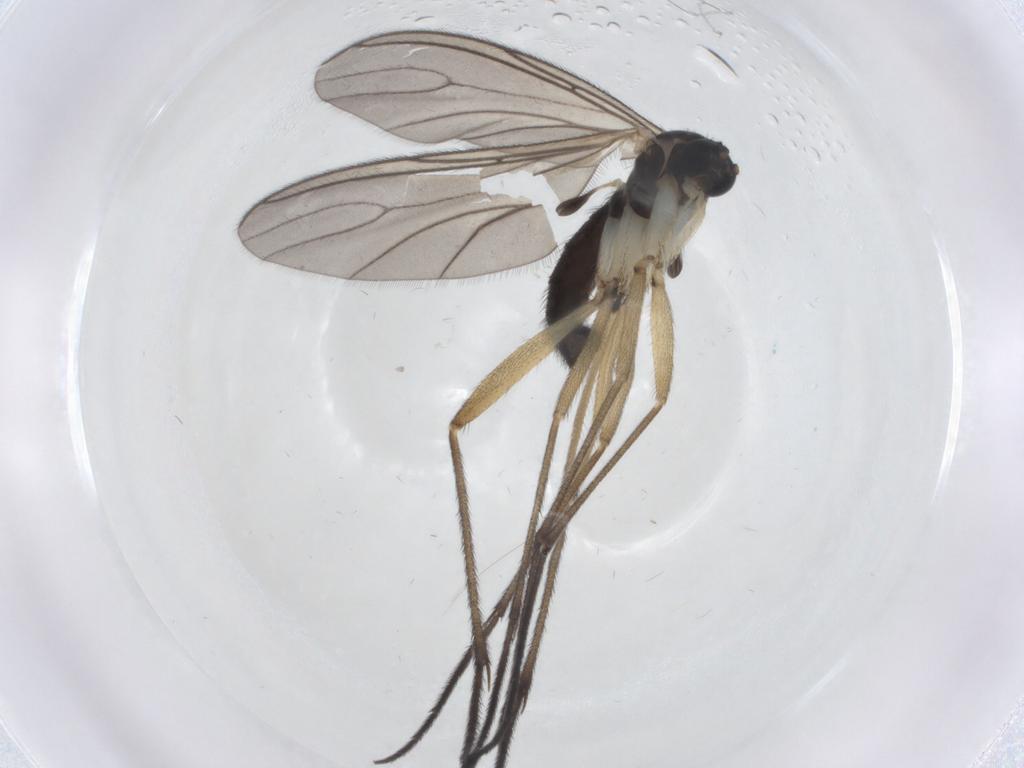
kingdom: Animalia
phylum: Arthropoda
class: Insecta
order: Diptera
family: Sciaridae
